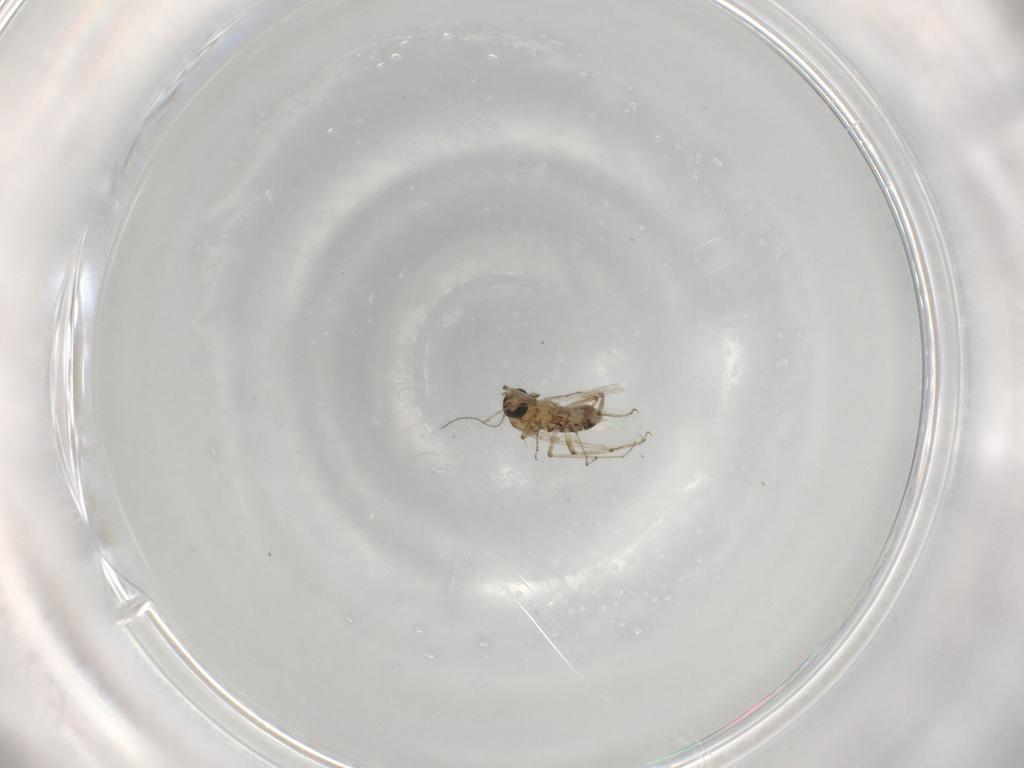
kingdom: Animalia
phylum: Arthropoda
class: Insecta
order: Diptera
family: Ceratopogonidae
